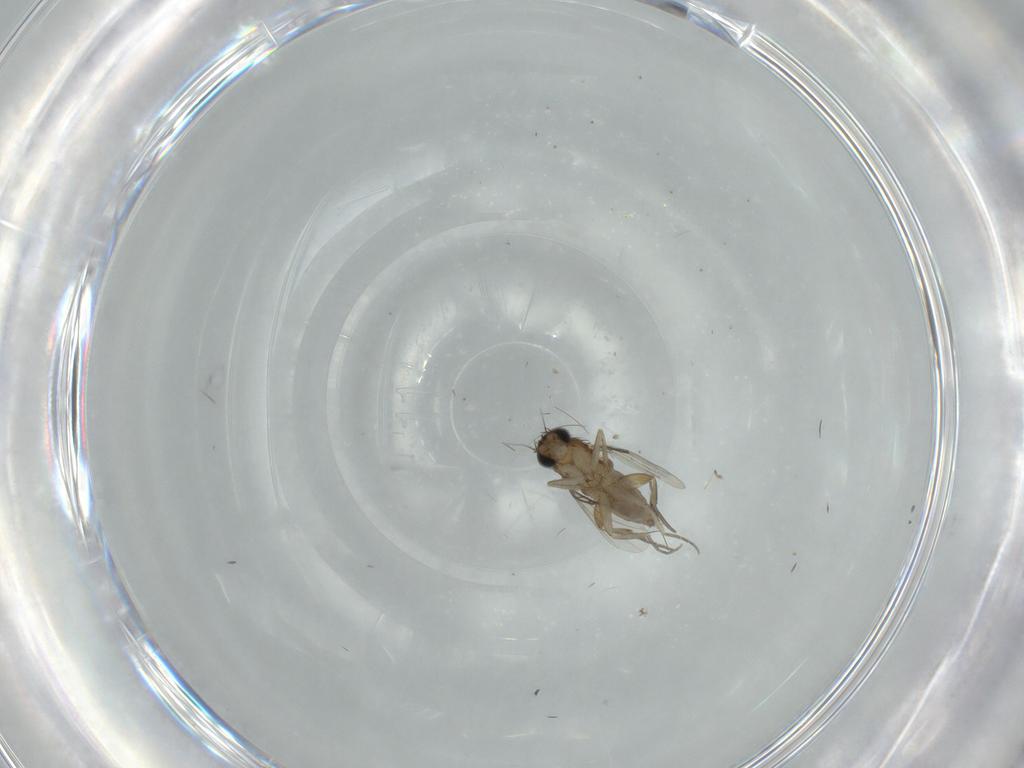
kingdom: Animalia
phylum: Arthropoda
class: Insecta
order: Diptera
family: Phoridae
